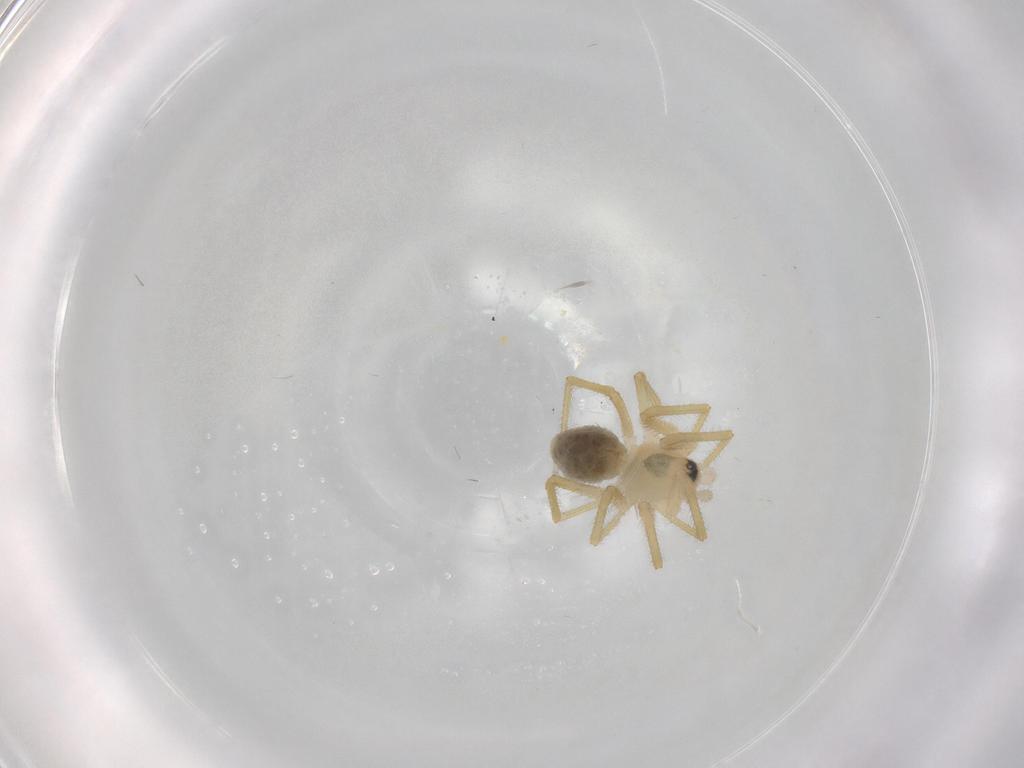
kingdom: Animalia
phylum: Arthropoda
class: Arachnida
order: Araneae
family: Linyphiidae
